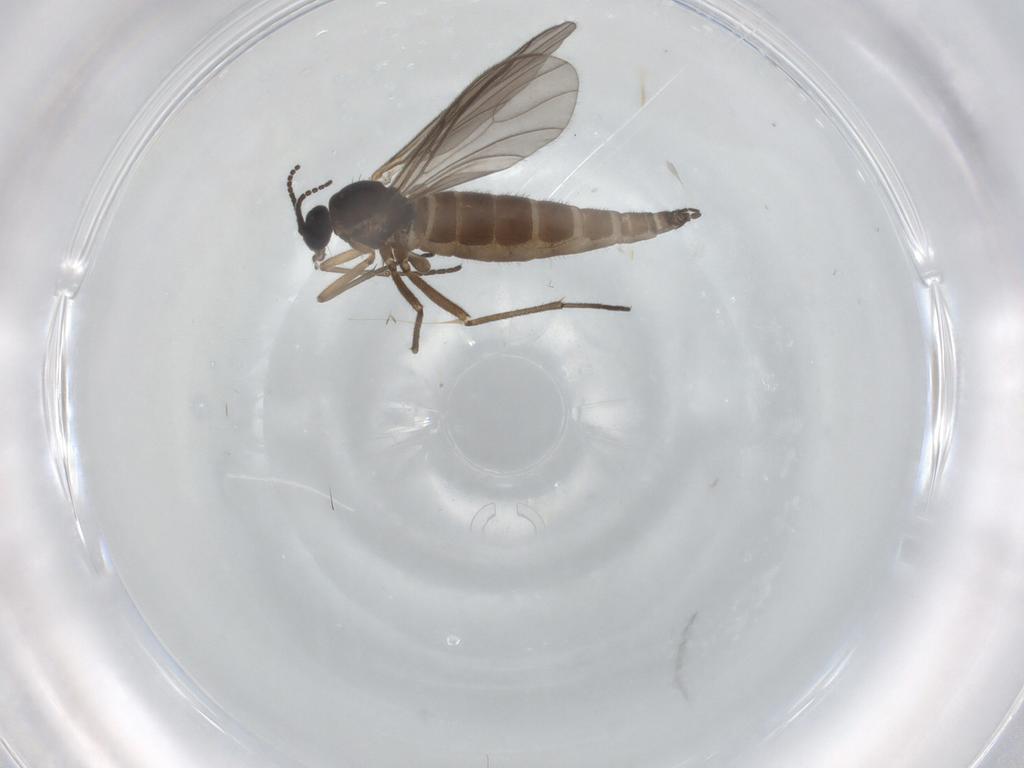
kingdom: Animalia
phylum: Arthropoda
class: Insecta
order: Diptera
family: Sciaridae
